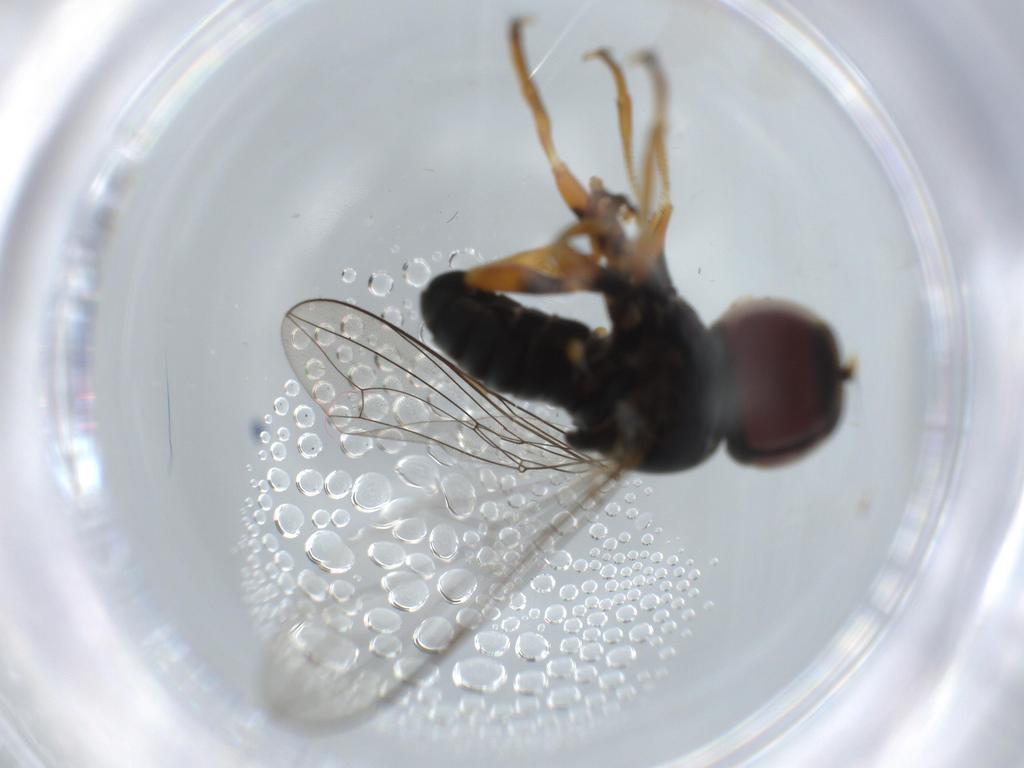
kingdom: Animalia
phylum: Arthropoda
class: Insecta
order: Diptera
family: Pipunculidae
